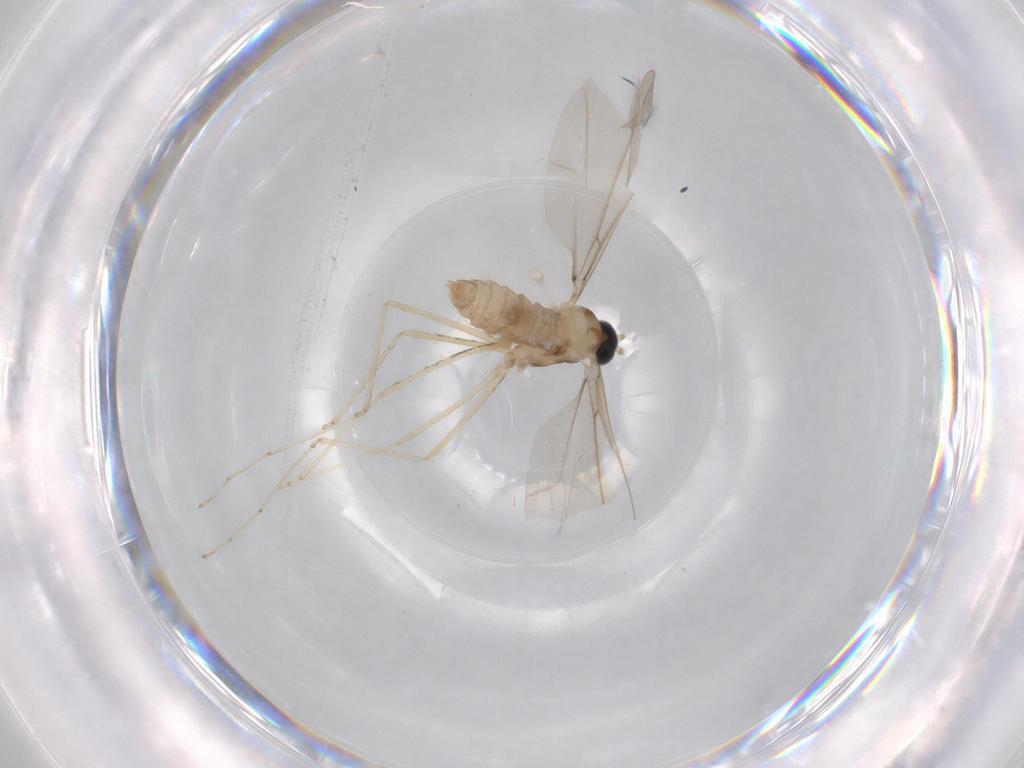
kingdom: Animalia
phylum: Arthropoda
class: Insecta
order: Diptera
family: Cecidomyiidae
